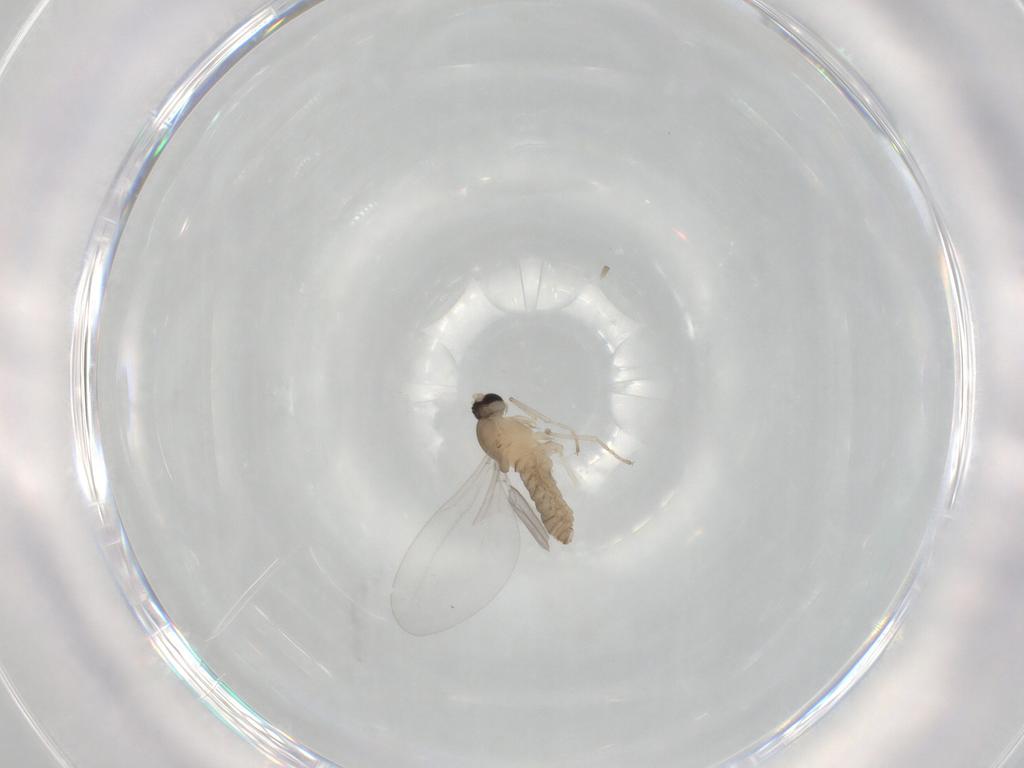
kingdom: Animalia
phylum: Arthropoda
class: Insecta
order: Diptera
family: Cecidomyiidae
